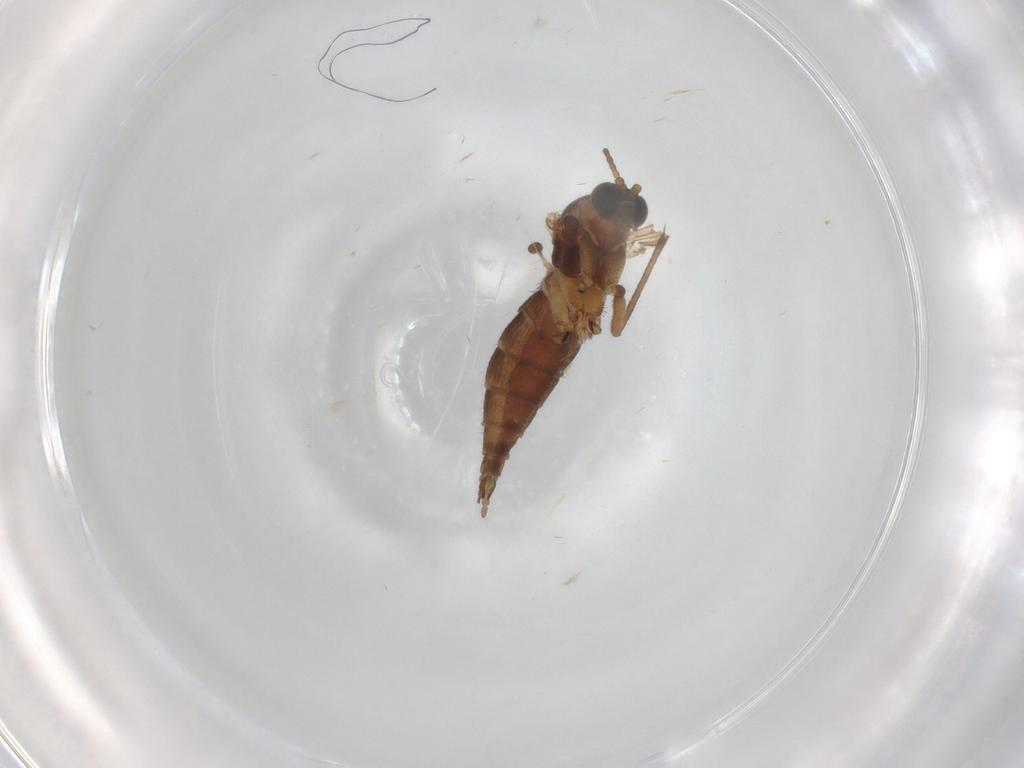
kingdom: Animalia
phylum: Arthropoda
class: Insecta
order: Diptera
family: Sciaridae
